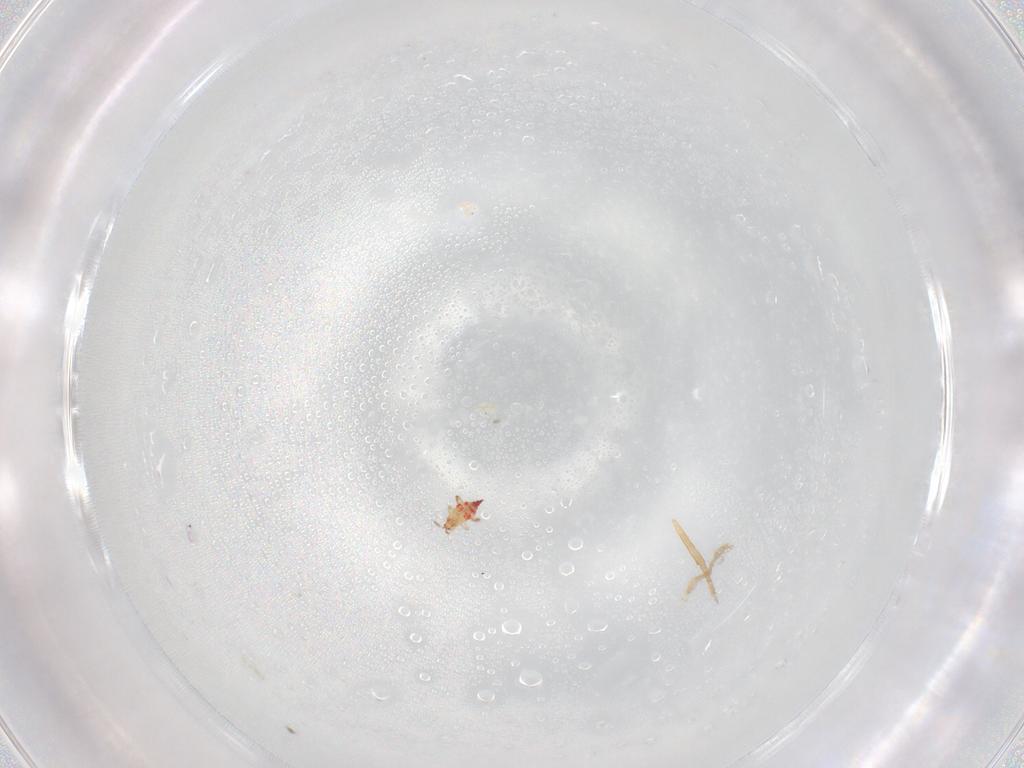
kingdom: Animalia
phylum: Arthropoda
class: Insecta
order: Thysanoptera
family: Phlaeothripidae
